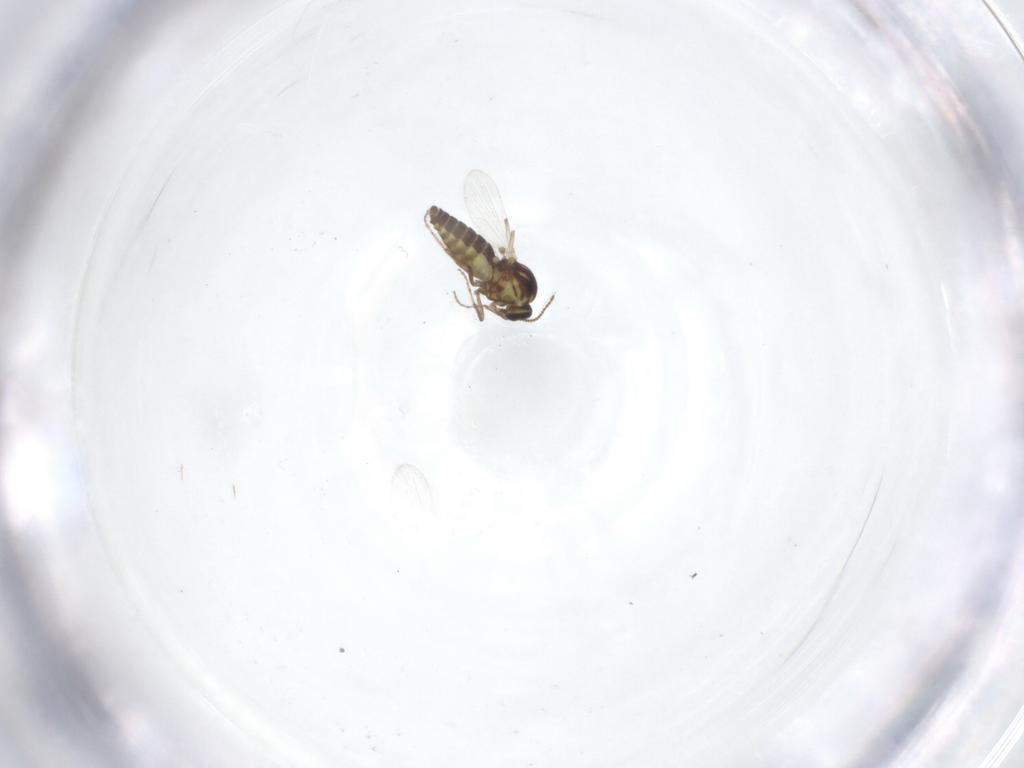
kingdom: Animalia
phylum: Arthropoda
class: Insecta
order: Diptera
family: Ceratopogonidae
